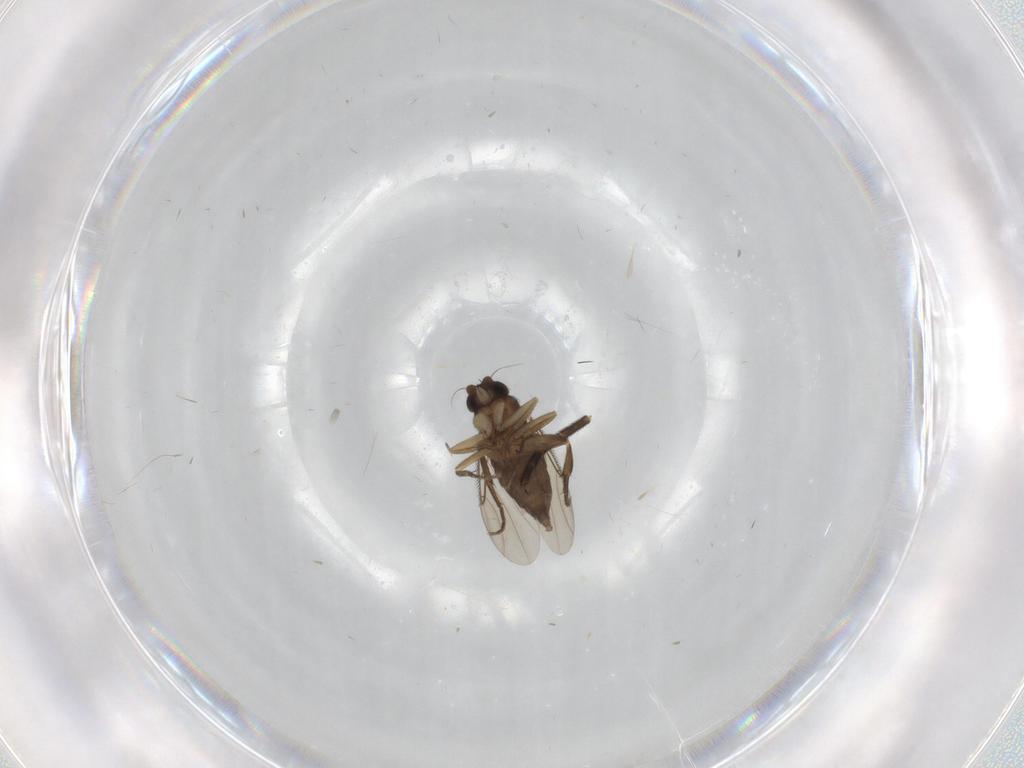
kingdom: Animalia
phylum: Arthropoda
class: Insecta
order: Diptera
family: Phoridae
